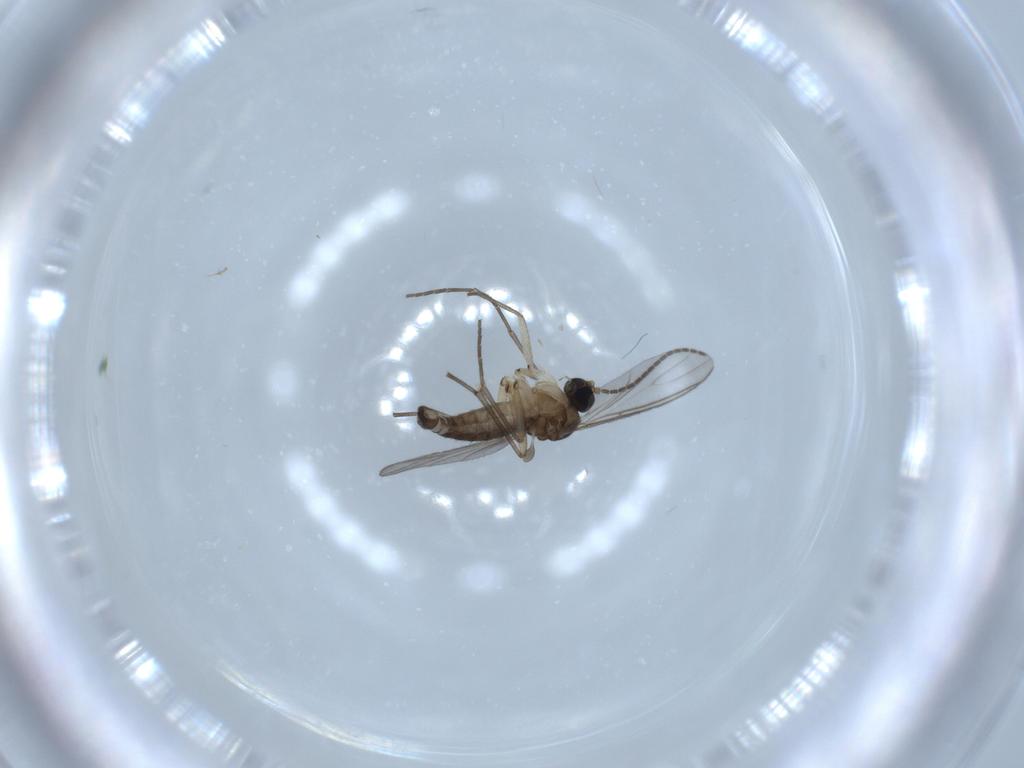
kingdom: Animalia
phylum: Arthropoda
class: Insecta
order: Diptera
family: Sciaridae
